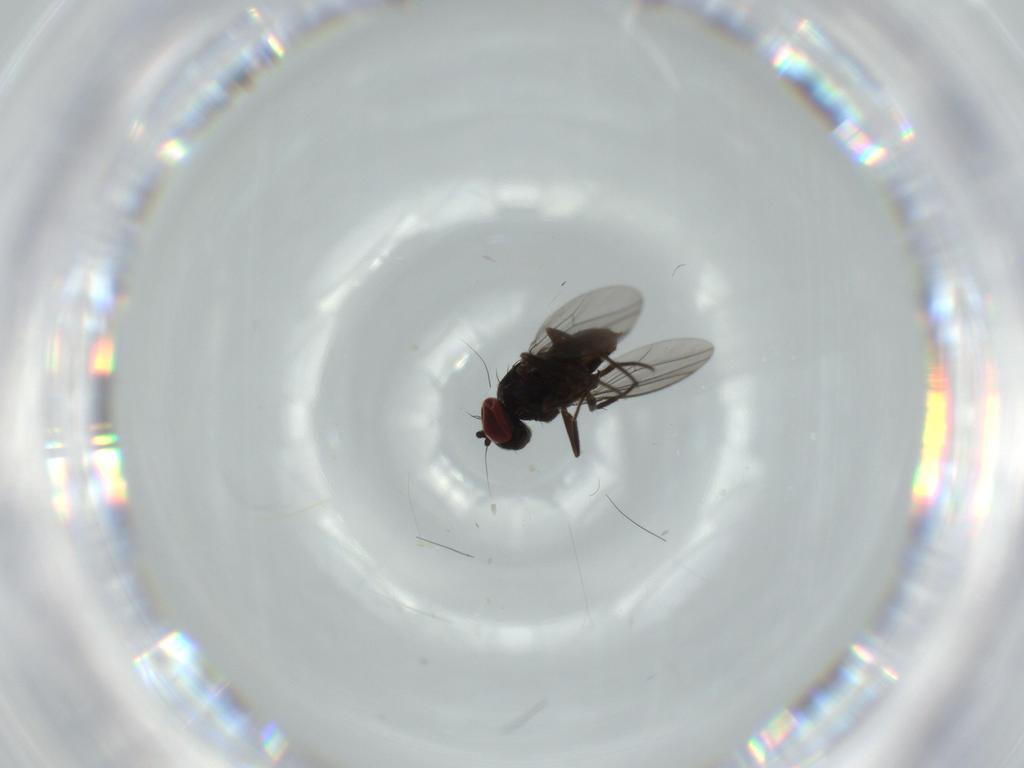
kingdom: Animalia
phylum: Arthropoda
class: Insecta
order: Diptera
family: Dolichopodidae
